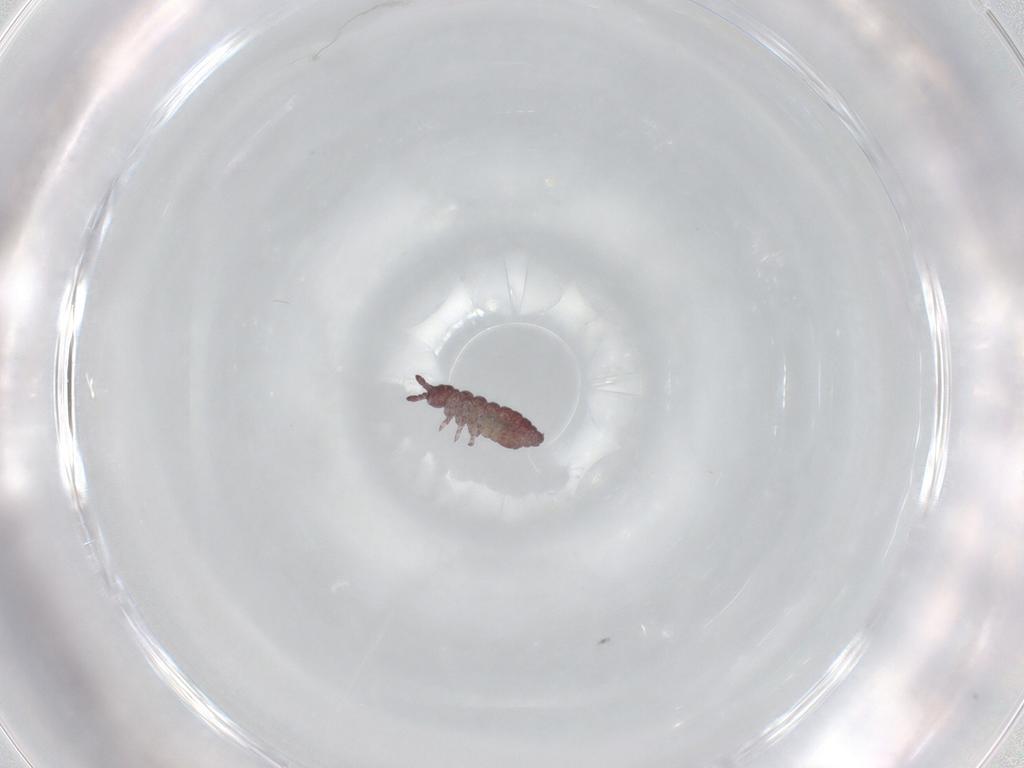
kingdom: Animalia
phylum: Arthropoda
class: Collembola
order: Poduromorpha
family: Hypogastruridae
